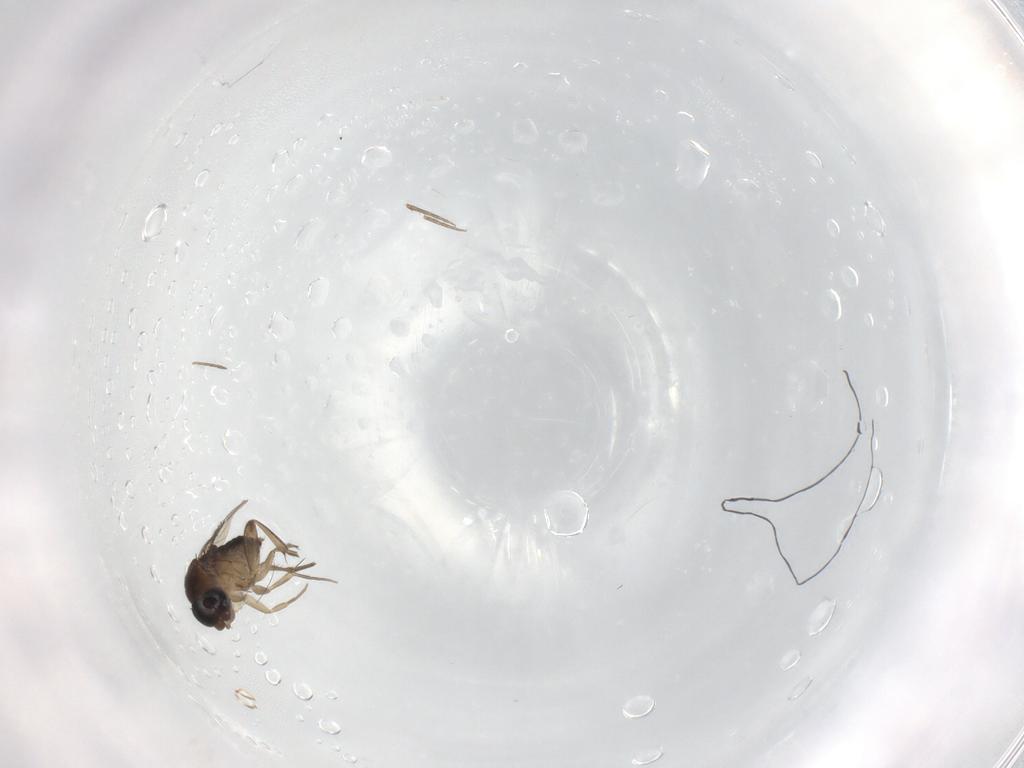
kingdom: Animalia
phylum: Arthropoda
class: Insecta
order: Diptera
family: Phoridae
